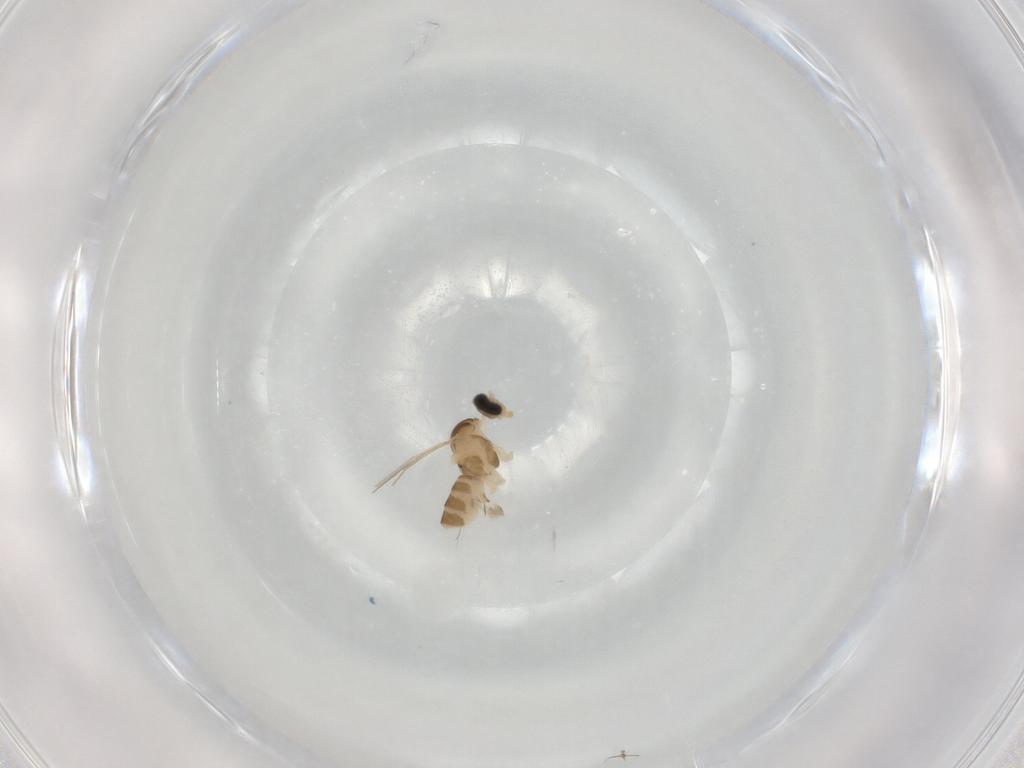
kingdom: Animalia
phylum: Arthropoda
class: Insecta
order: Diptera
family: Cecidomyiidae
